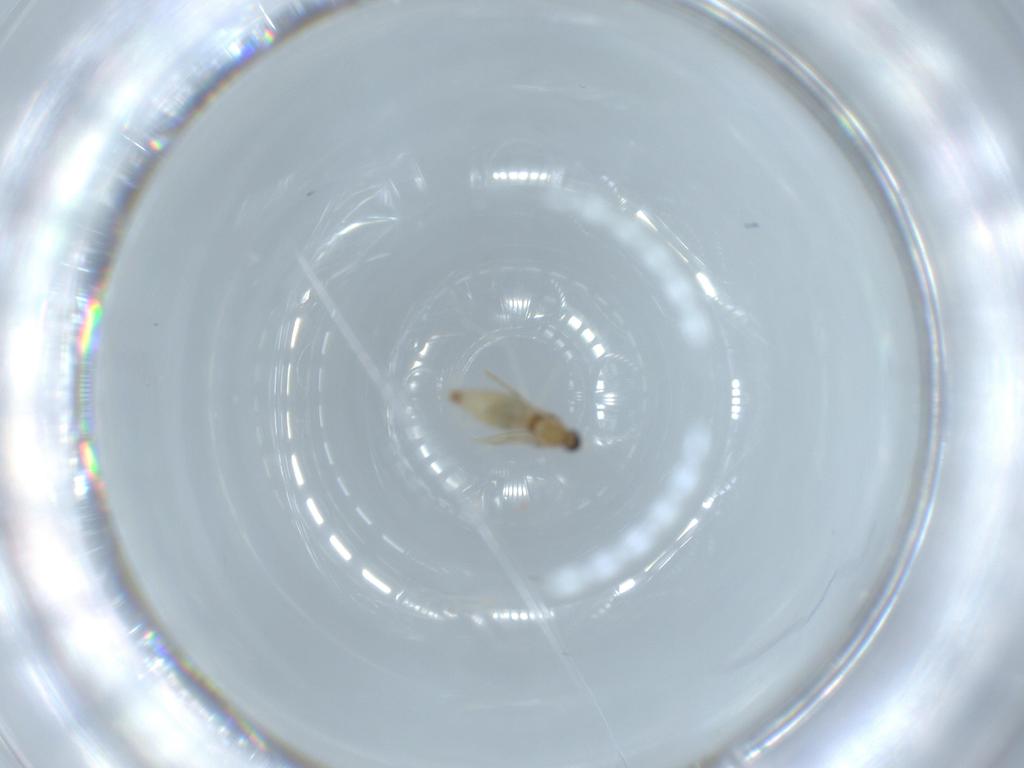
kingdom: Animalia
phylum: Arthropoda
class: Insecta
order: Diptera
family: Cecidomyiidae
